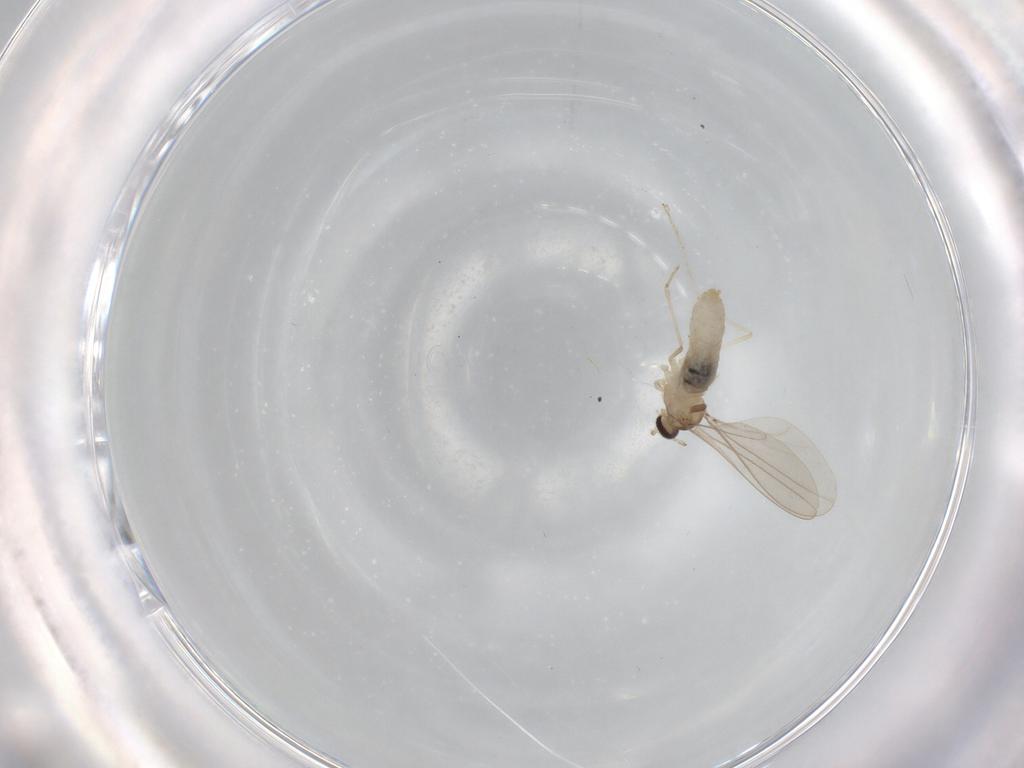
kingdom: Animalia
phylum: Arthropoda
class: Insecta
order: Diptera
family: Cecidomyiidae
